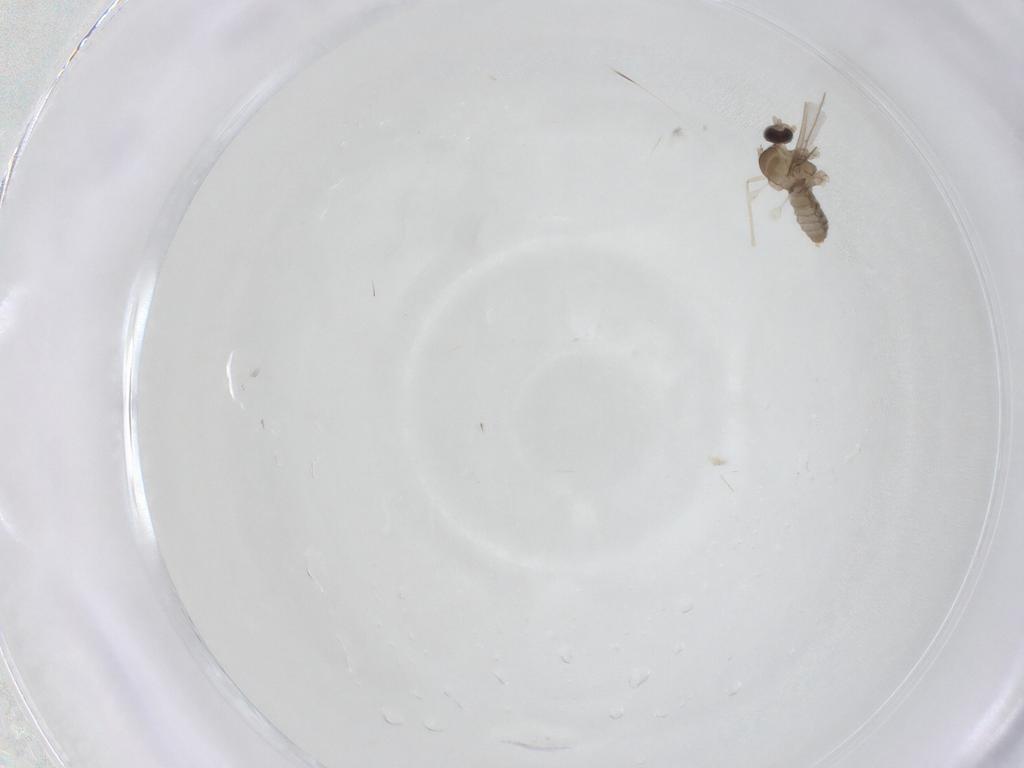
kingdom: Animalia
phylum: Arthropoda
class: Insecta
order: Diptera
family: Cecidomyiidae
